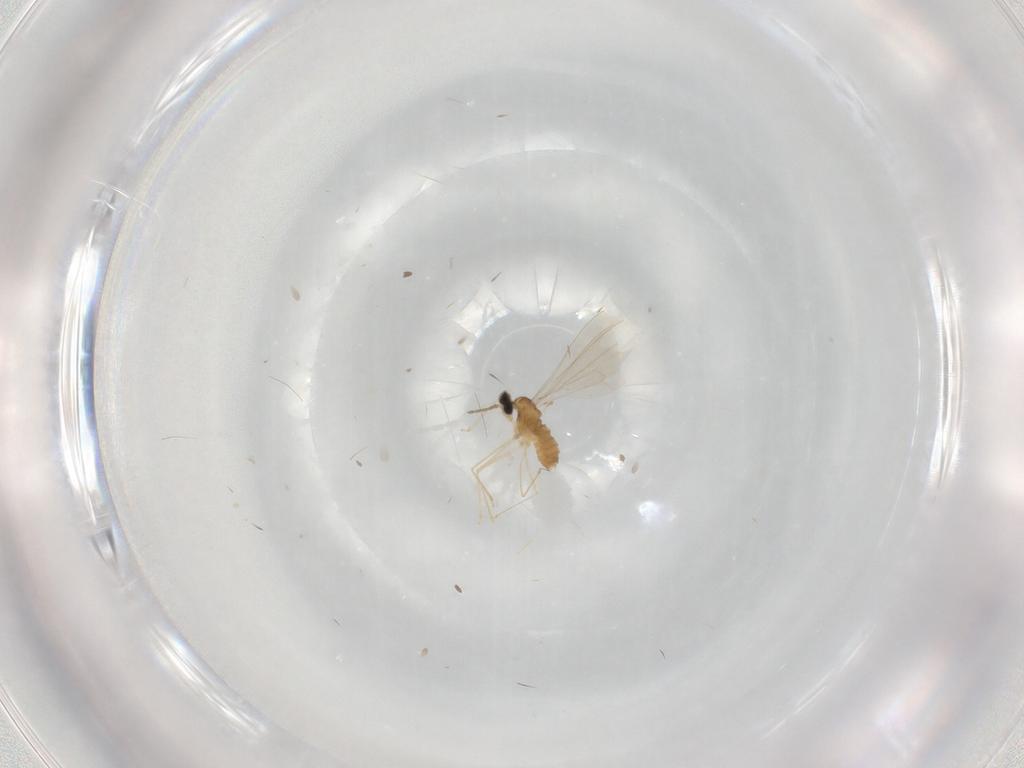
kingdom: Animalia
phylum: Arthropoda
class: Insecta
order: Diptera
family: Cecidomyiidae
